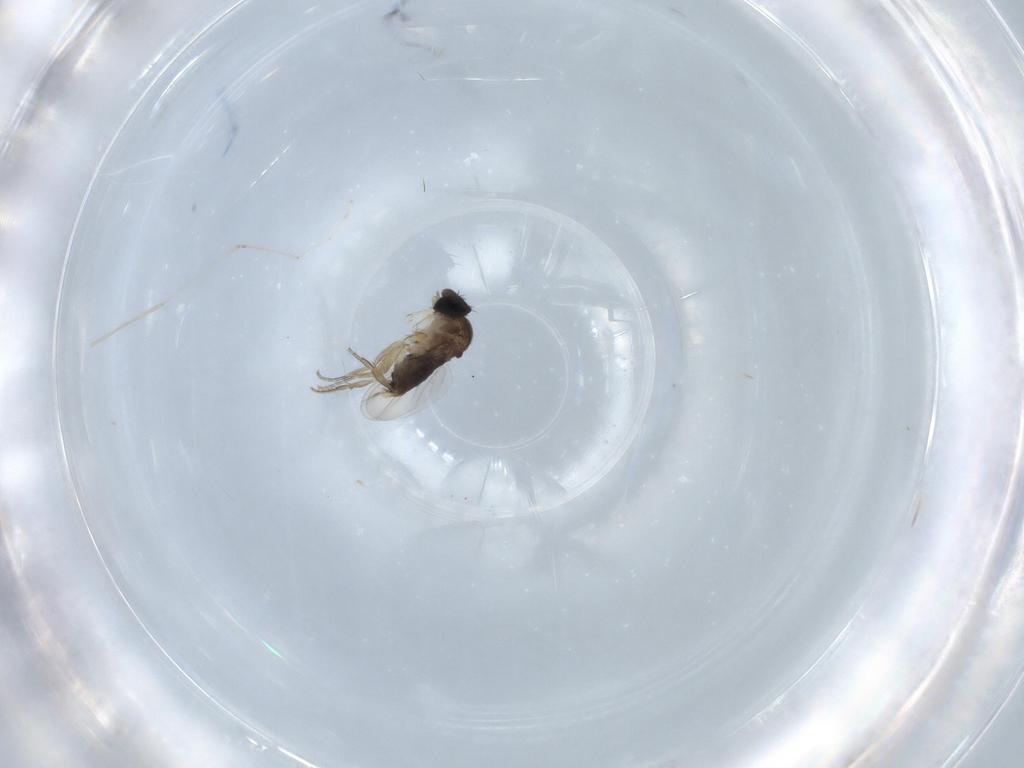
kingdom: Animalia
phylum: Arthropoda
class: Insecta
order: Diptera
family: Phoridae
